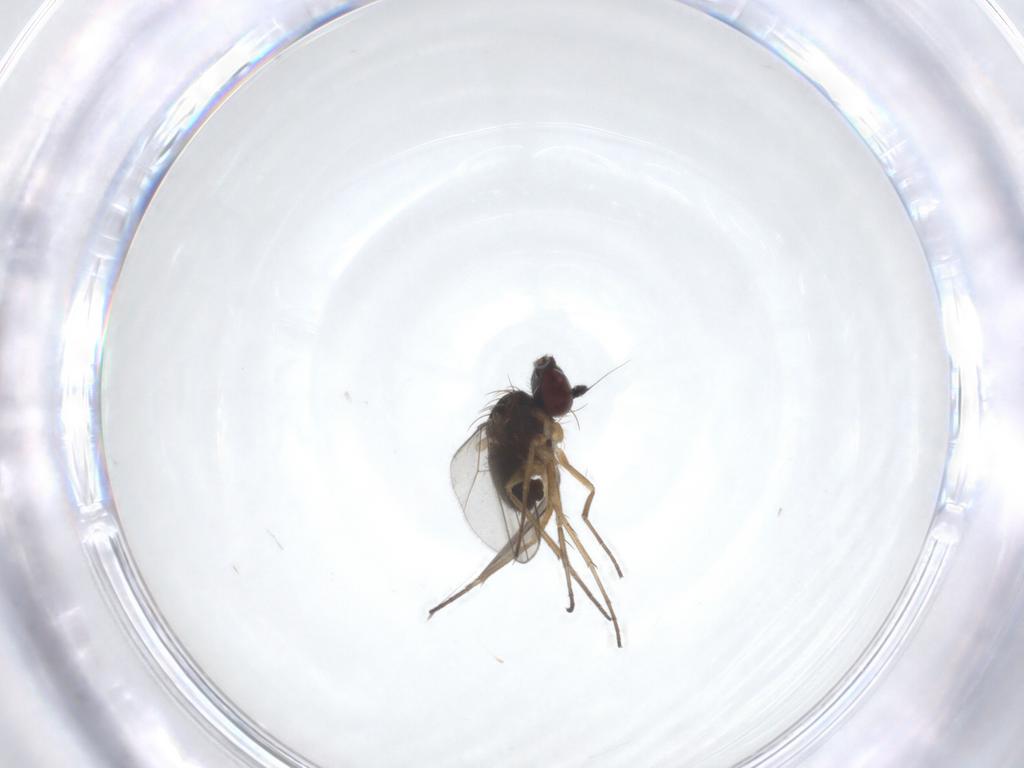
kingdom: Animalia
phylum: Arthropoda
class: Insecta
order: Diptera
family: Dolichopodidae
